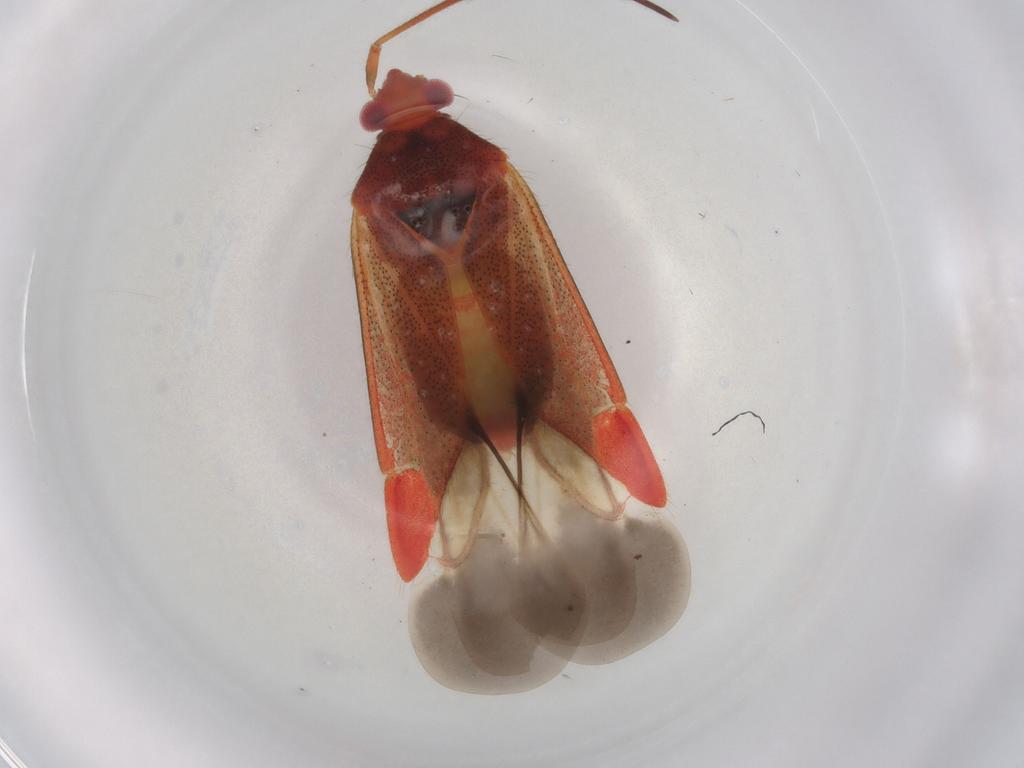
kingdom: Animalia
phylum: Arthropoda
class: Insecta
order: Hemiptera
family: Miridae
